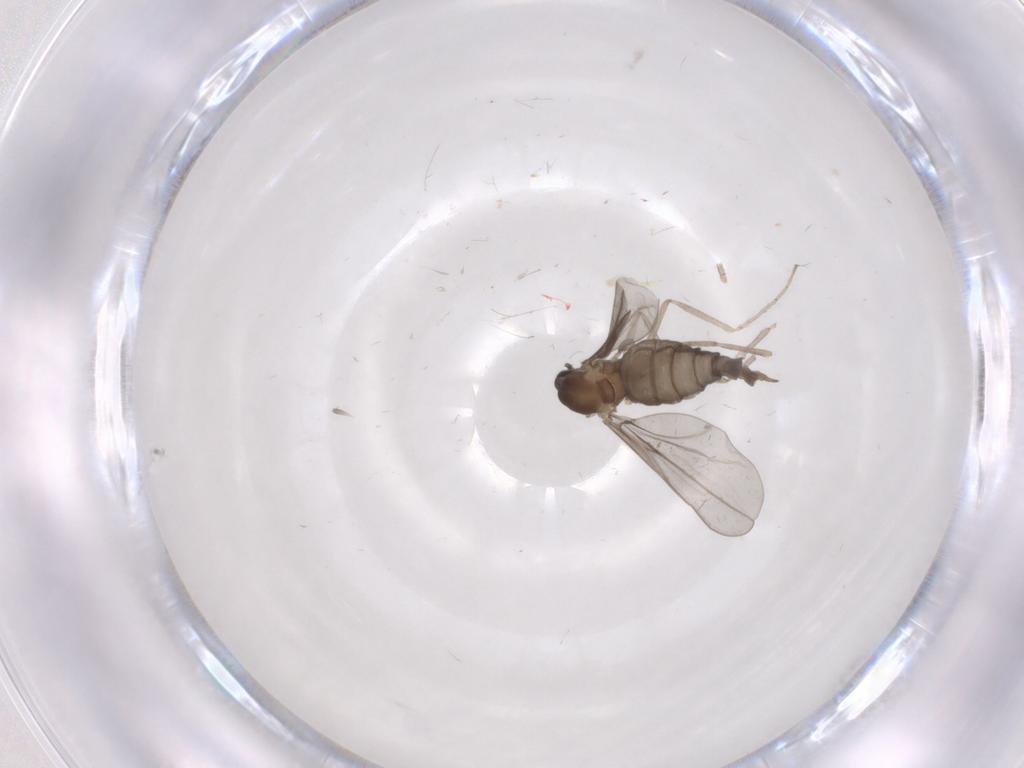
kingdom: Animalia
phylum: Arthropoda
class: Insecta
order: Diptera
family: Cecidomyiidae
